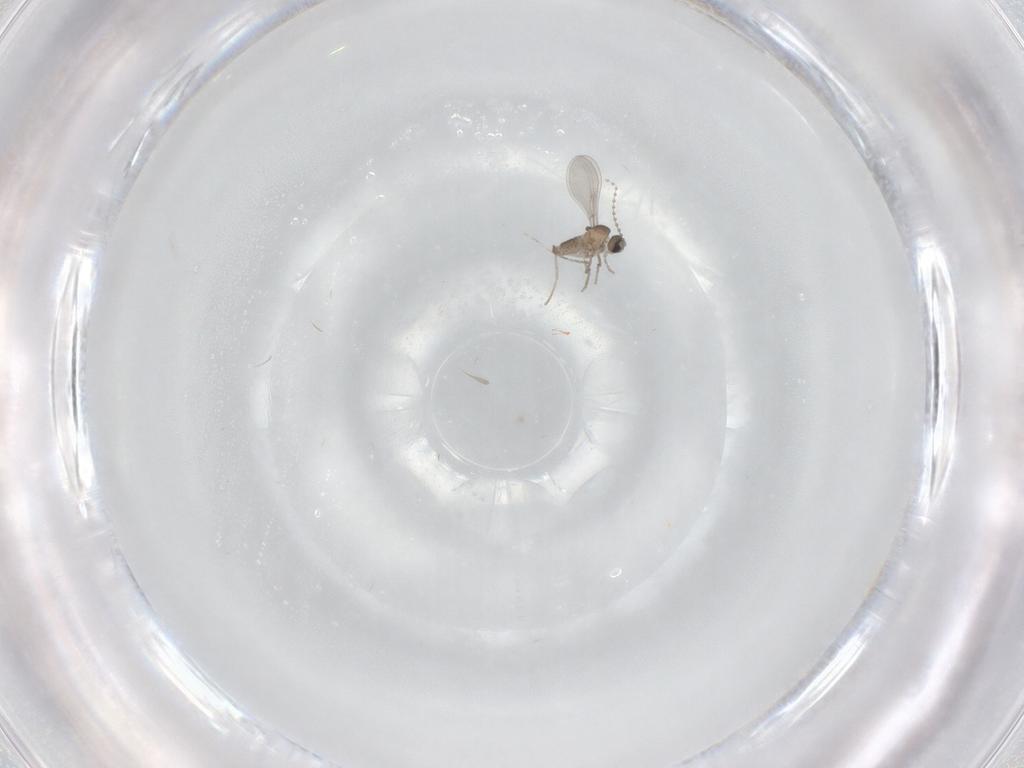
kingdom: Animalia
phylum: Arthropoda
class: Insecta
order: Diptera
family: Cecidomyiidae
